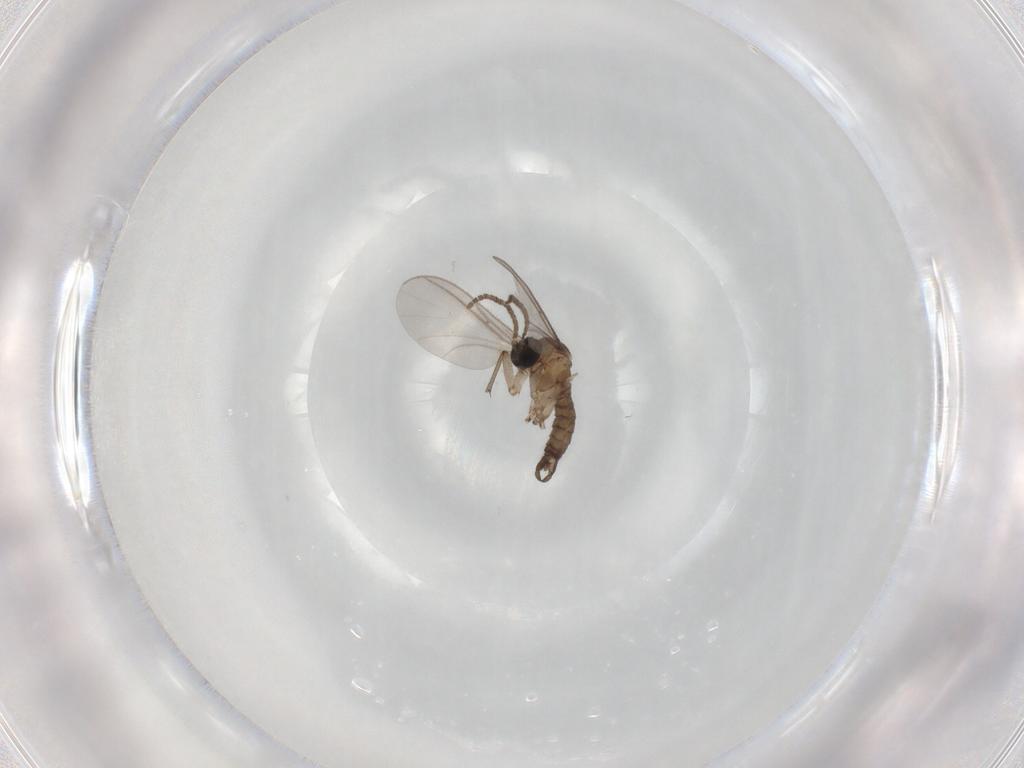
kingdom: Animalia
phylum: Arthropoda
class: Insecta
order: Diptera
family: Sciaridae
